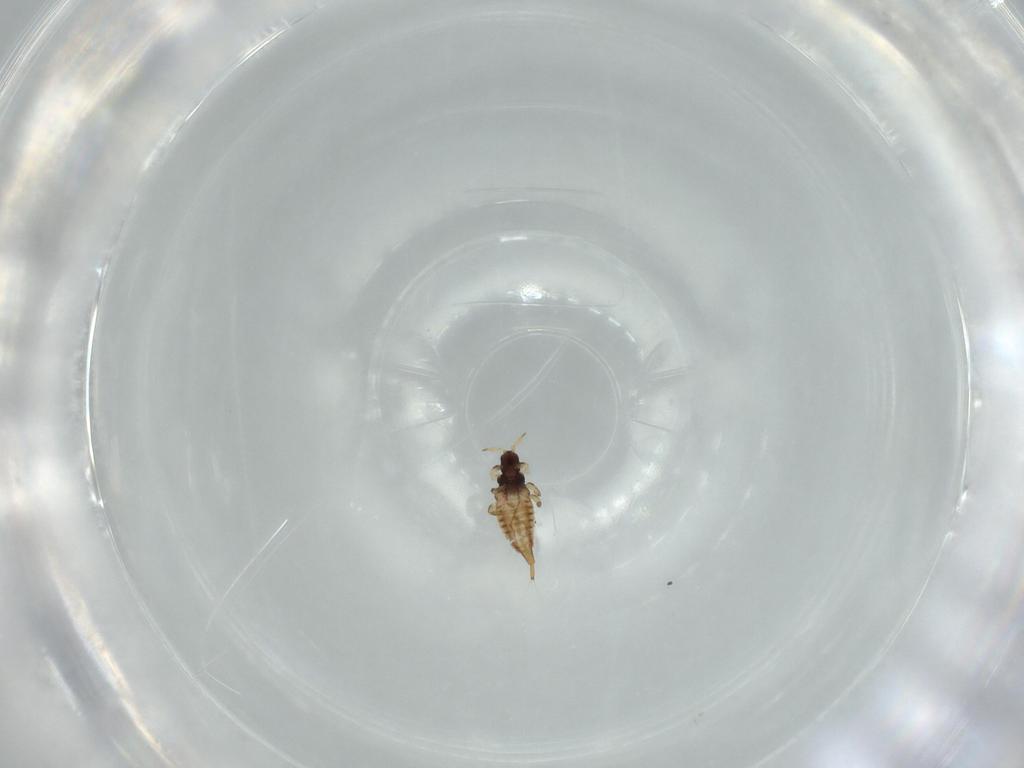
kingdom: Animalia
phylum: Arthropoda
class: Insecta
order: Thysanoptera
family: Phlaeothripidae
